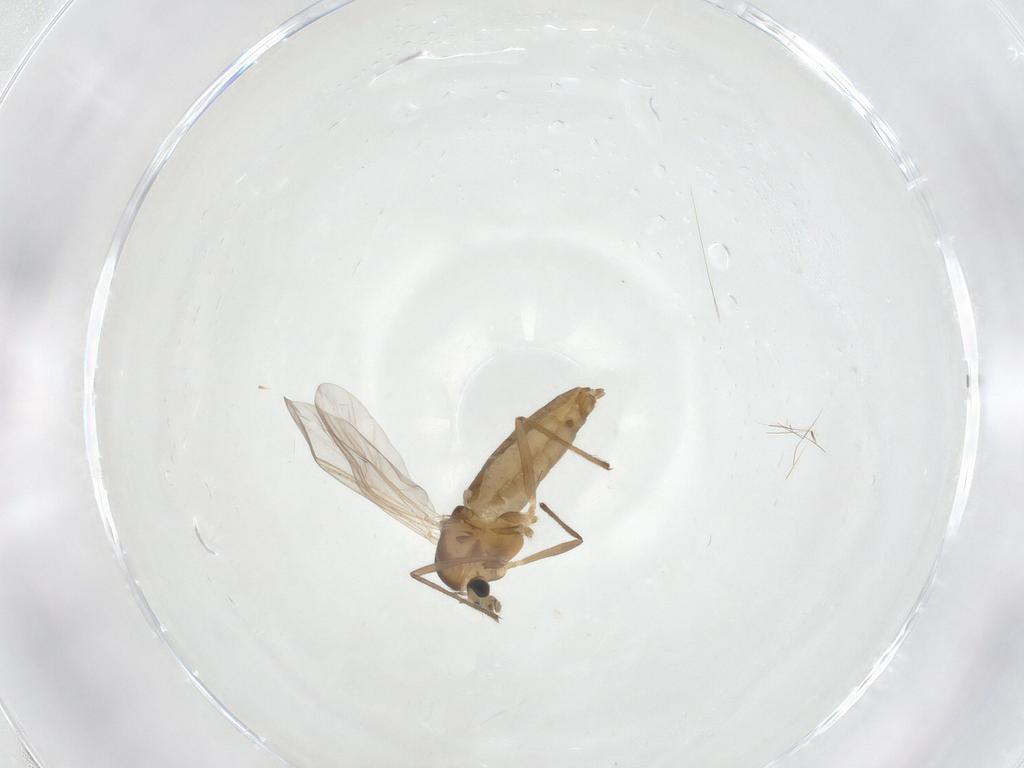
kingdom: Animalia
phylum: Arthropoda
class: Insecta
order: Diptera
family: Chironomidae
